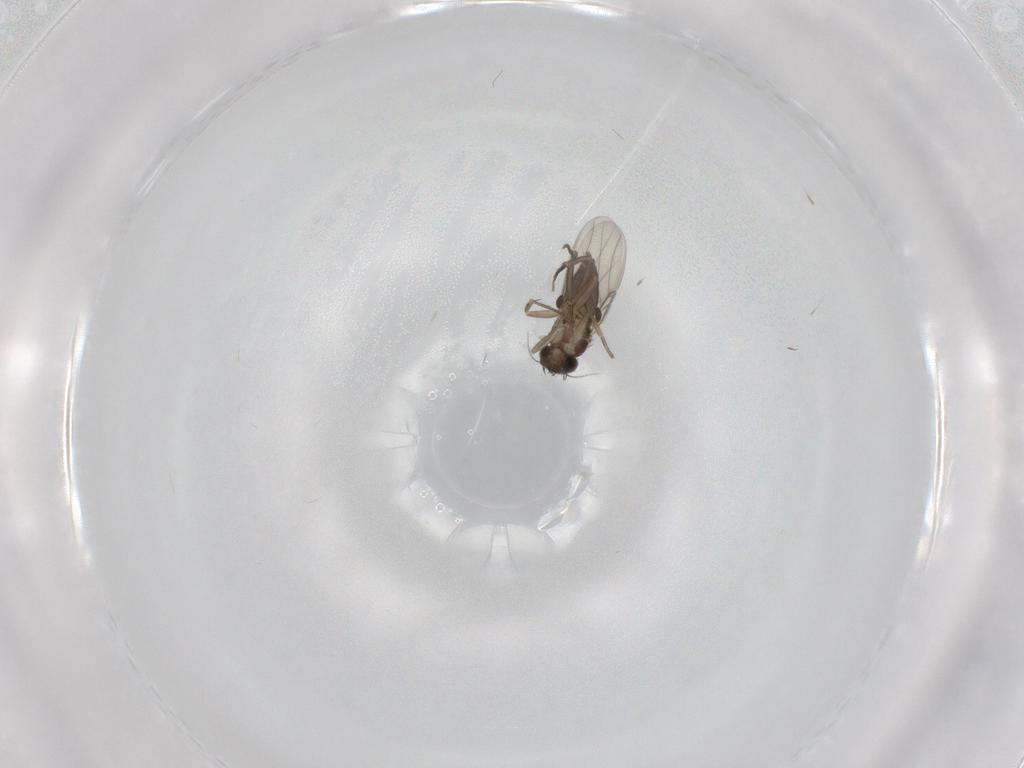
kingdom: Animalia
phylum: Arthropoda
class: Insecta
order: Diptera
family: Phoridae
